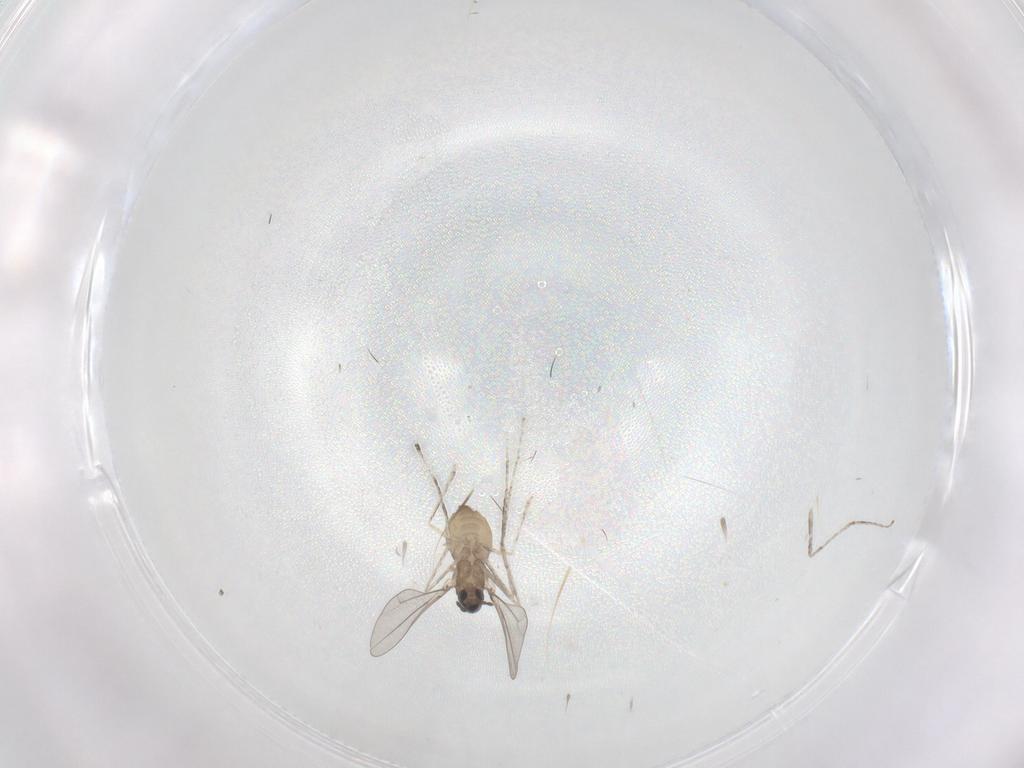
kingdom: Animalia
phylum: Arthropoda
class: Insecta
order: Diptera
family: Cecidomyiidae
